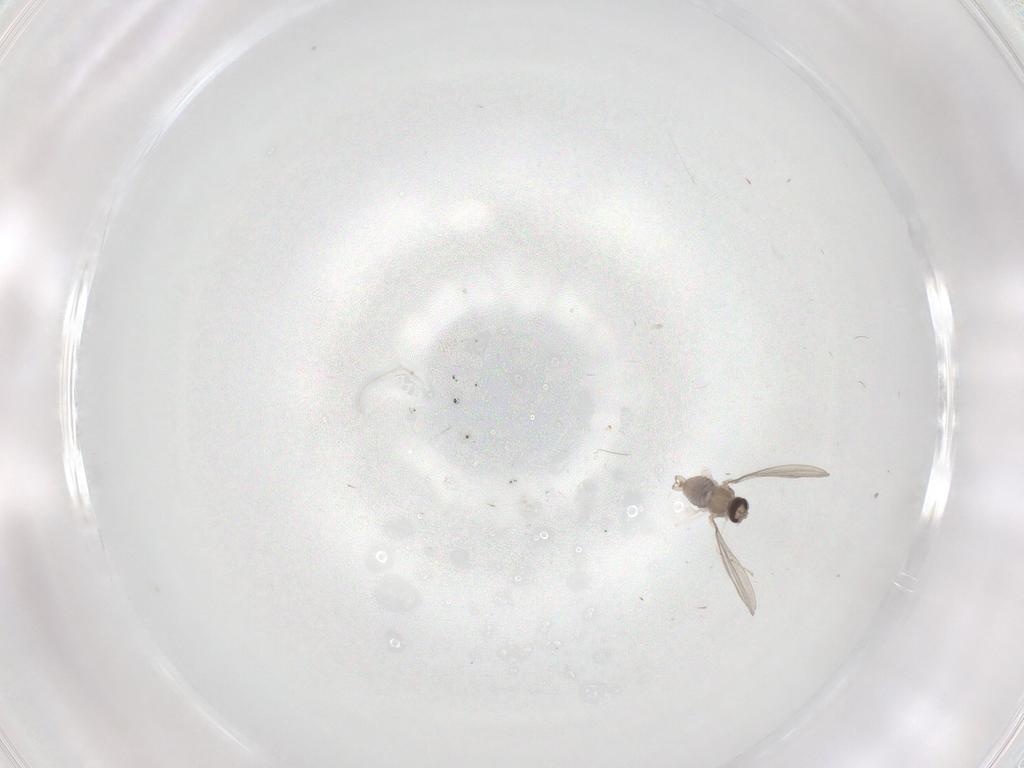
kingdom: Animalia
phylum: Arthropoda
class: Insecta
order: Diptera
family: Cecidomyiidae
